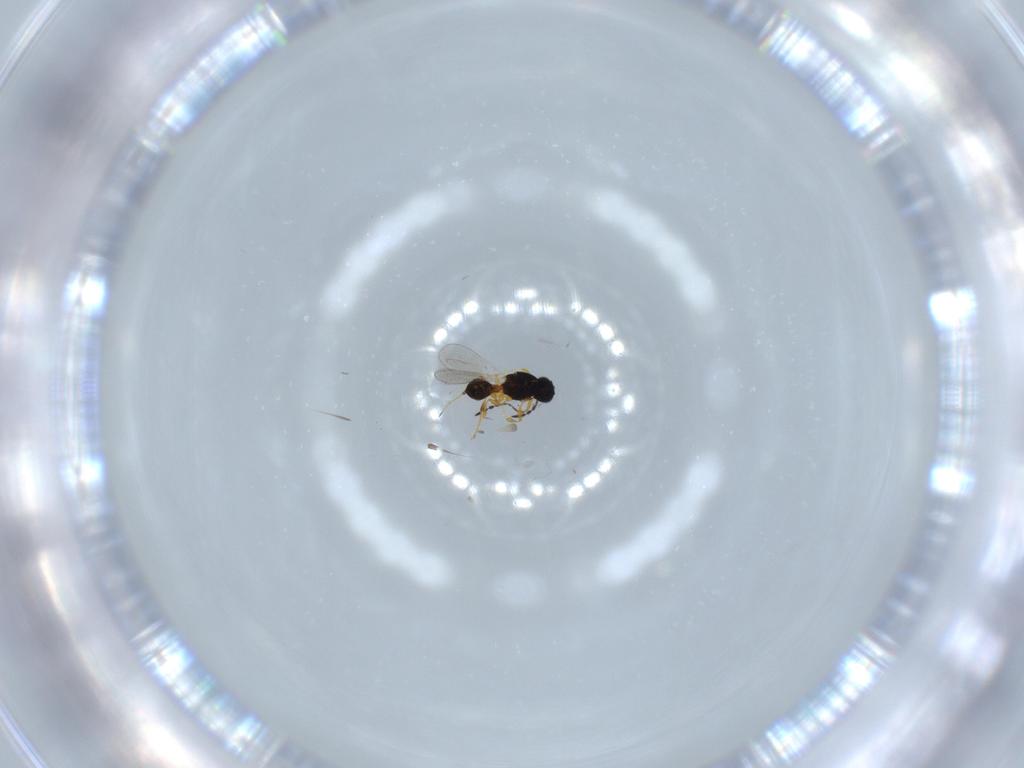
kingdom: Animalia
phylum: Arthropoda
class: Insecta
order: Hymenoptera
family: Platygastridae
